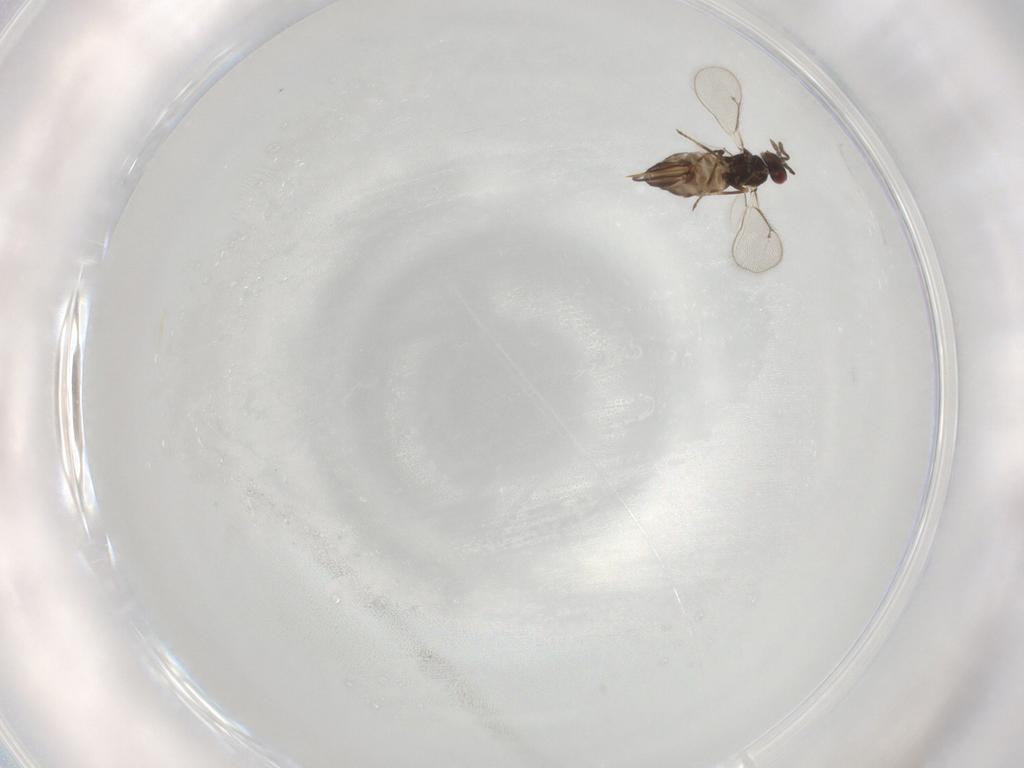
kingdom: Animalia
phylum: Arthropoda
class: Insecta
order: Hymenoptera
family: Eulophidae
